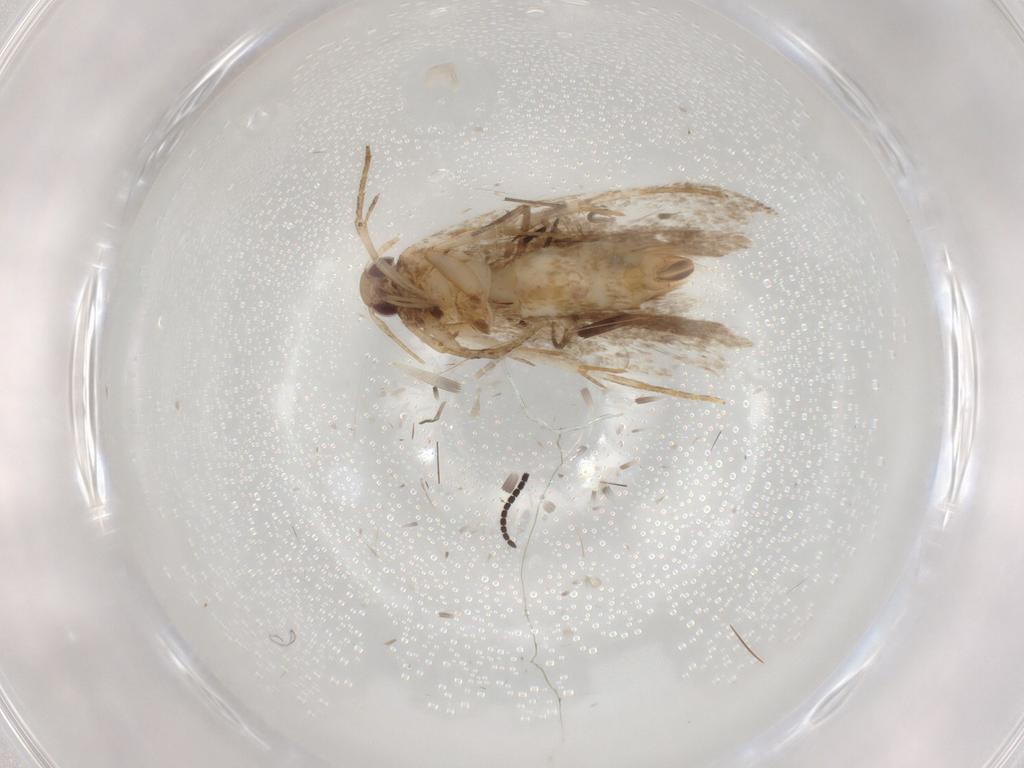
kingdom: Animalia
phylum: Arthropoda
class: Insecta
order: Lepidoptera
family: Gelechiidae
